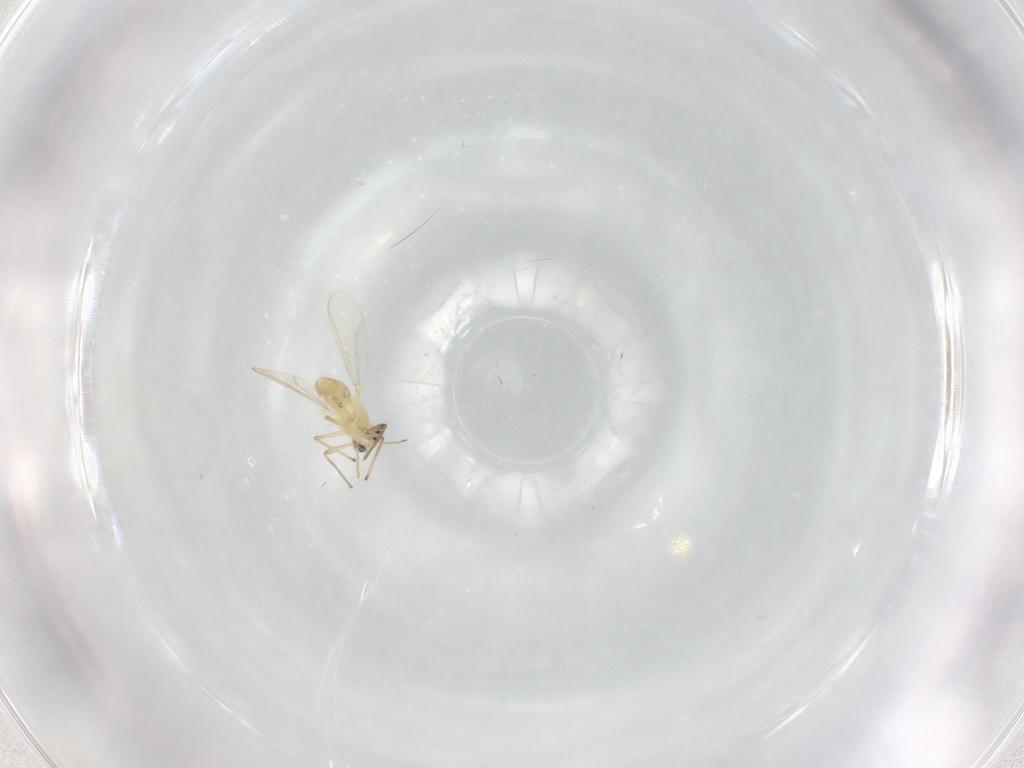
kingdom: Animalia
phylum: Arthropoda
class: Insecta
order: Diptera
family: Chironomidae
